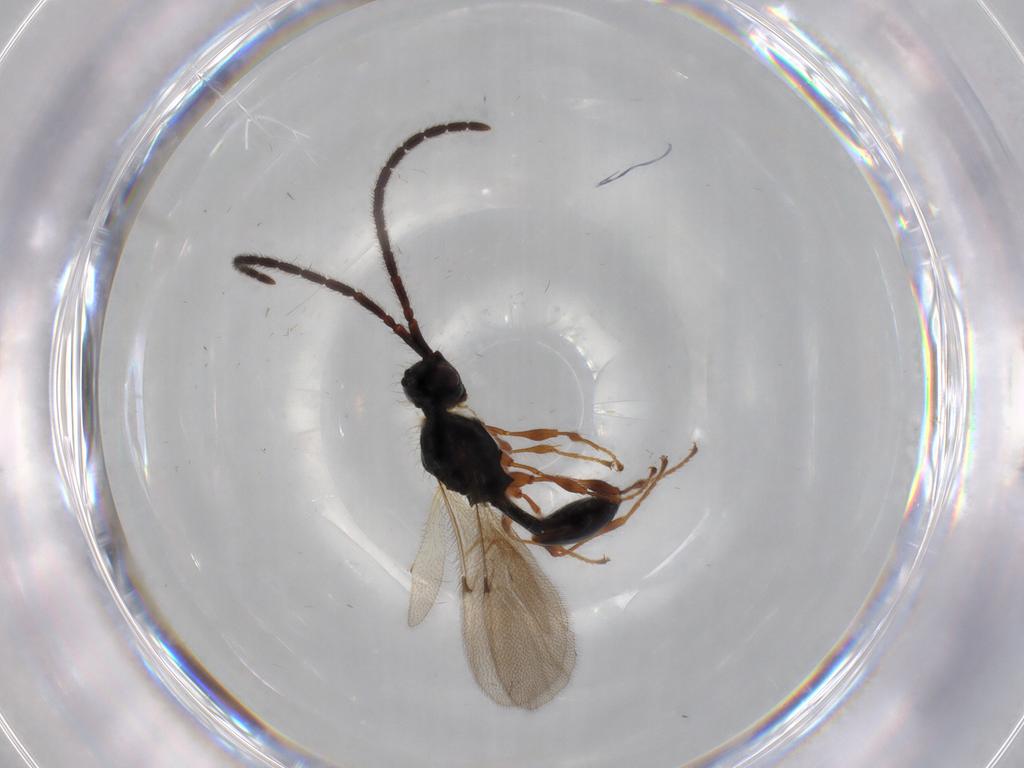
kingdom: Animalia
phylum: Arthropoda
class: Insecta
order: Hymenoptera
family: Diapriidae
